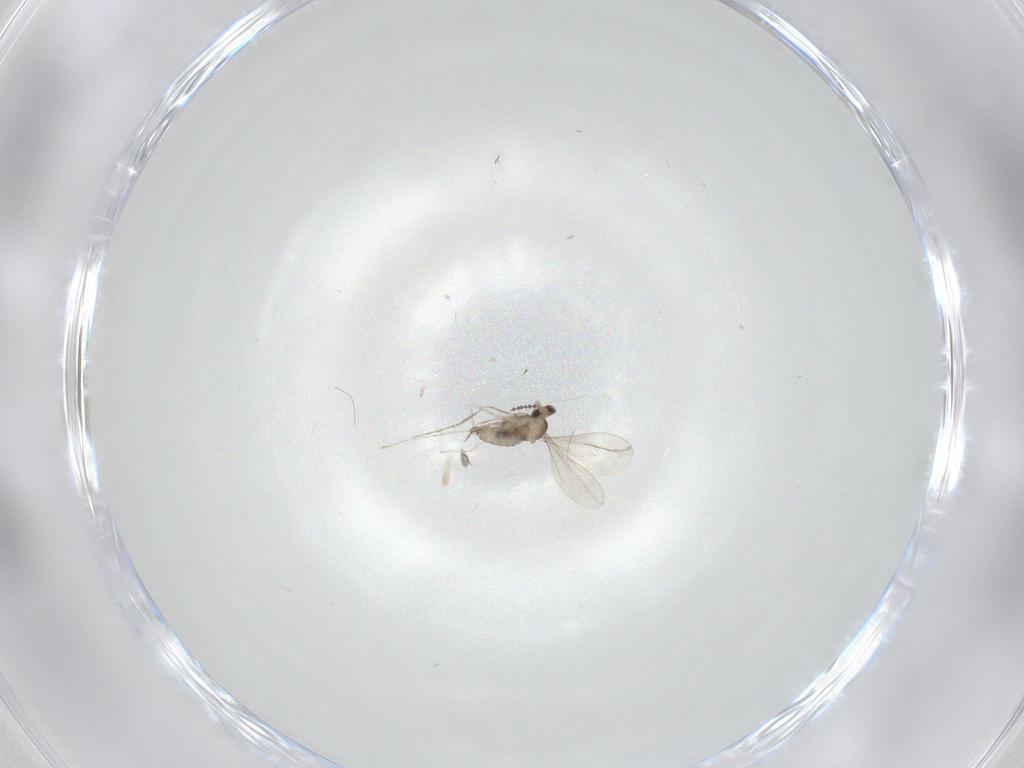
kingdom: Animalia
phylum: Arthropoda
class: Insecta
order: Diptera
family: Cecidomyiidae
